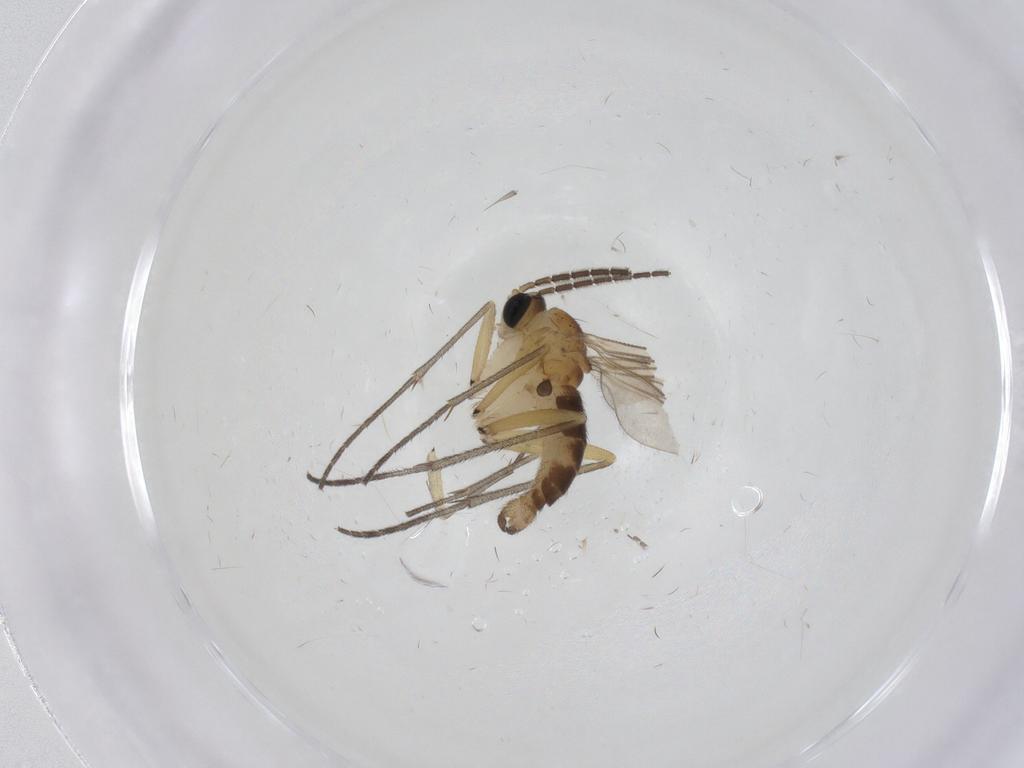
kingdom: Animalia
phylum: Arthropoda
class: Insecta
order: Diptera
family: Sciaridae
